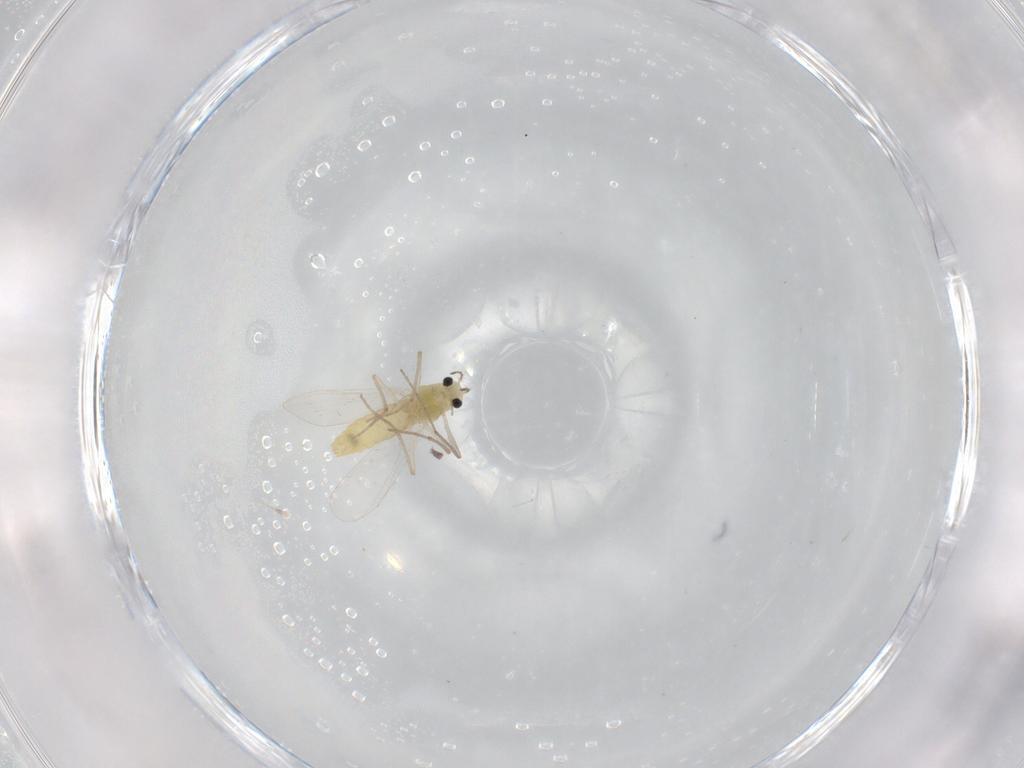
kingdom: Animalia
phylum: Arthropoda
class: Insecta
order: Diptera
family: Chironomidae
